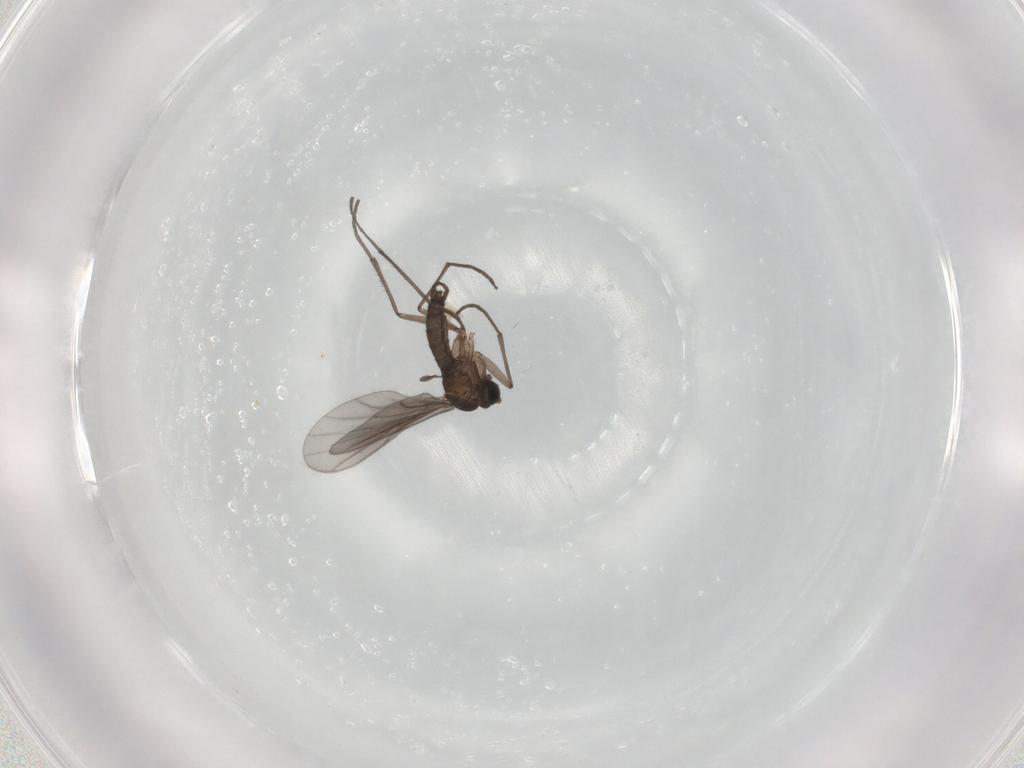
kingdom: Animalia
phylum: Arthropoda
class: Insecta
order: Diptera
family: Sciaridae
